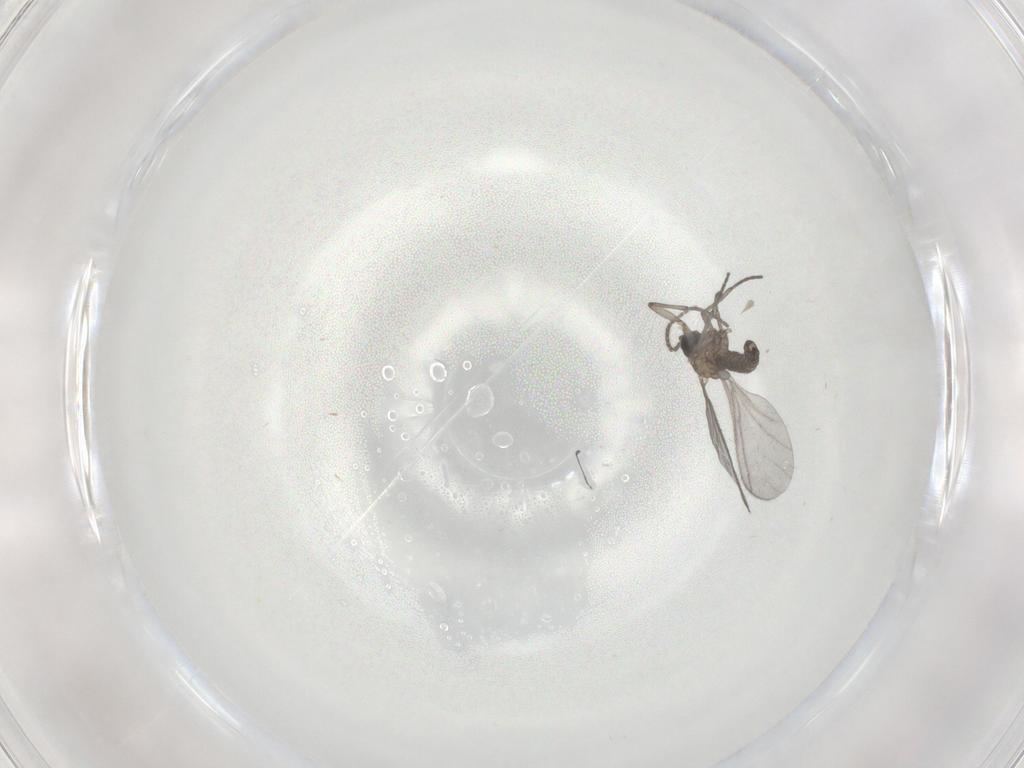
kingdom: Animalia
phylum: Arthropoda
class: Insecta
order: Diptera
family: Sciaridae
